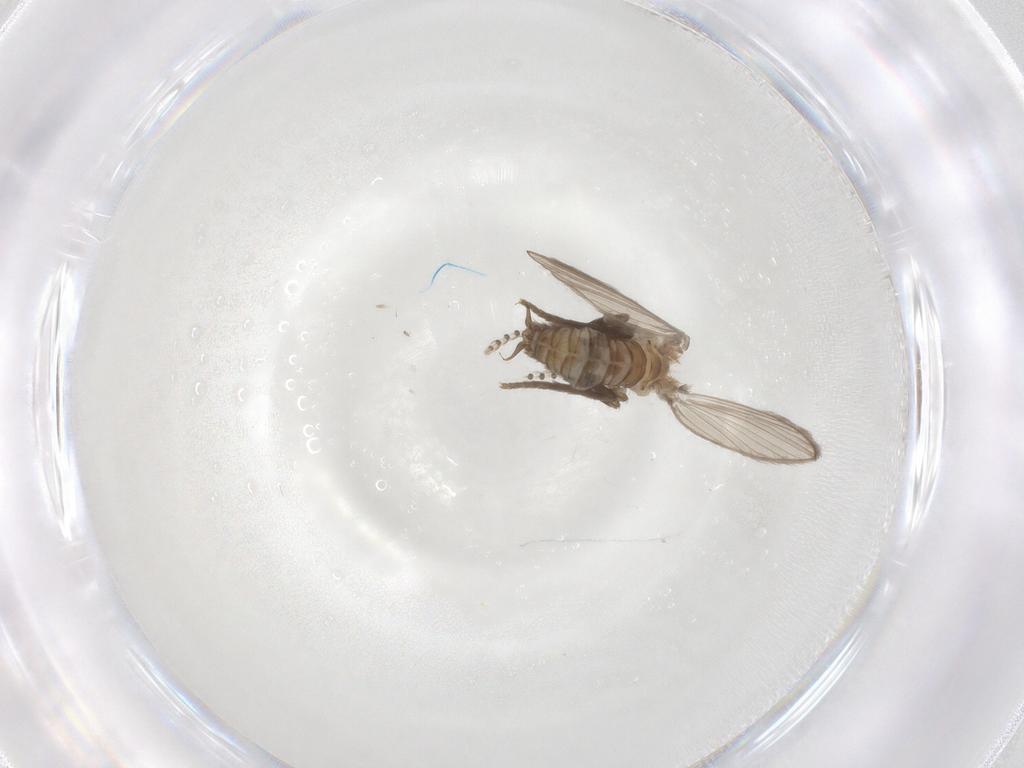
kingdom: Animalia
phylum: Arthropoda
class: Insecta
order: Diptera
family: Psychodidae
